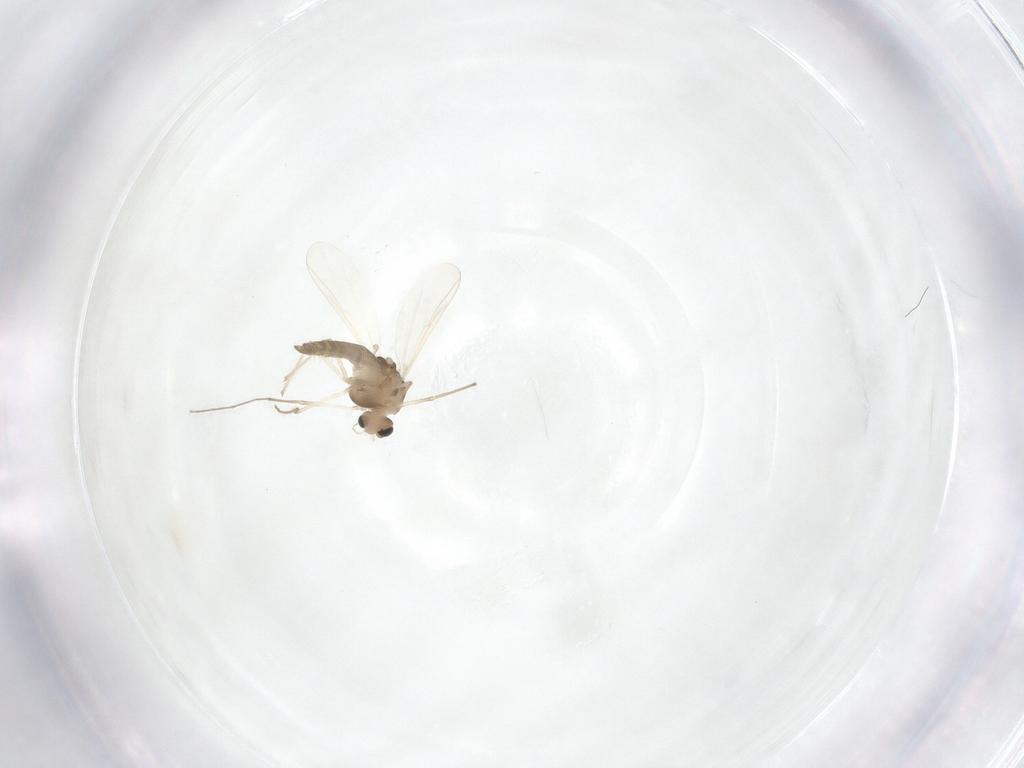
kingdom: Animalia
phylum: Arthropoda
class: Insecta
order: Diptera
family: Chironomidae
